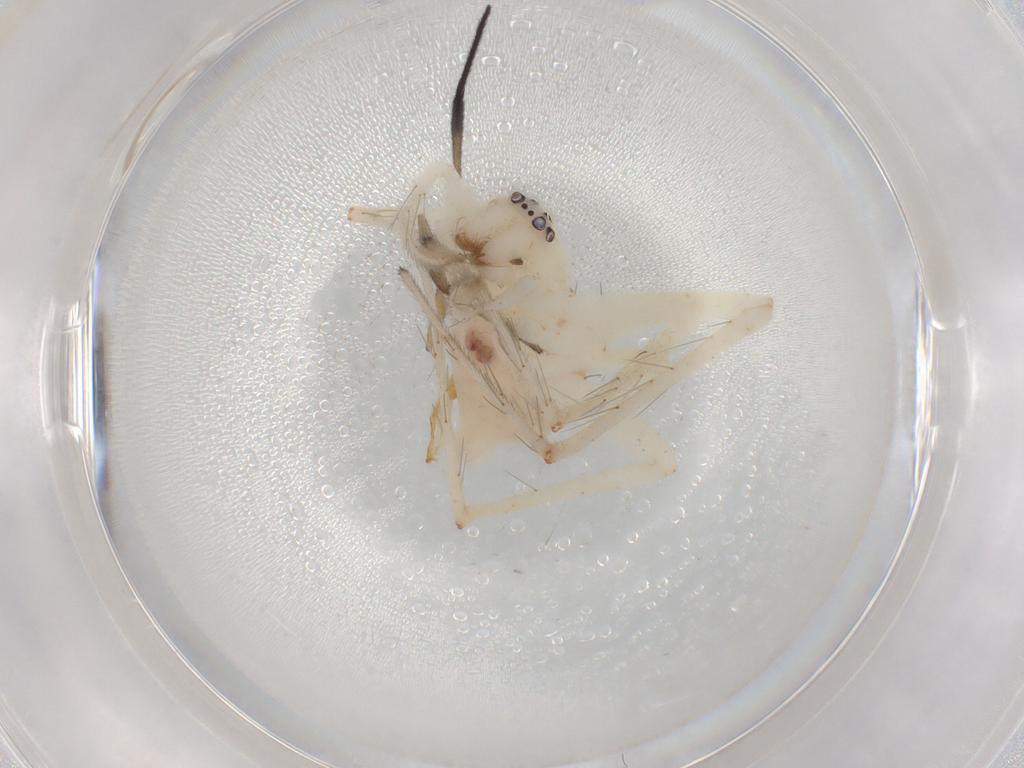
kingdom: Animalia
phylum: Arthropoda
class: Arachnida
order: Araneae
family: Anyphaenidae
